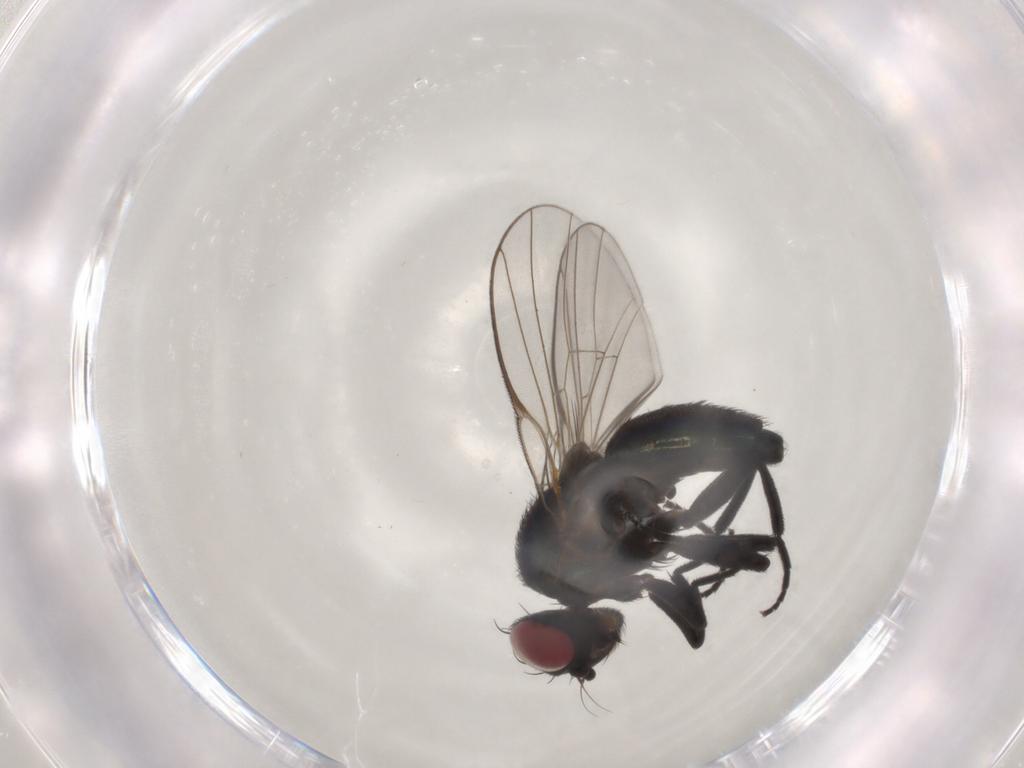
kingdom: Animalia
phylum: Arthropoda
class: Insecta
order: Diptera
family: Agromyzidae
